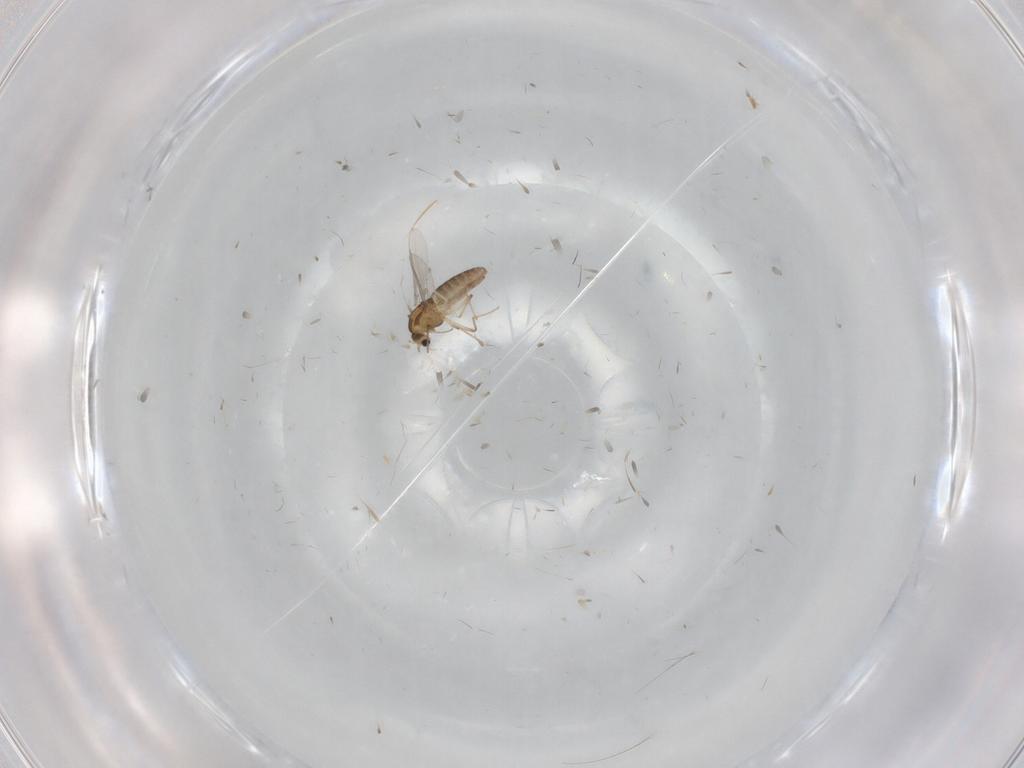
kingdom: Animalia
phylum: Arthropoda
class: Insecta
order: Diptera
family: Chironomidae
